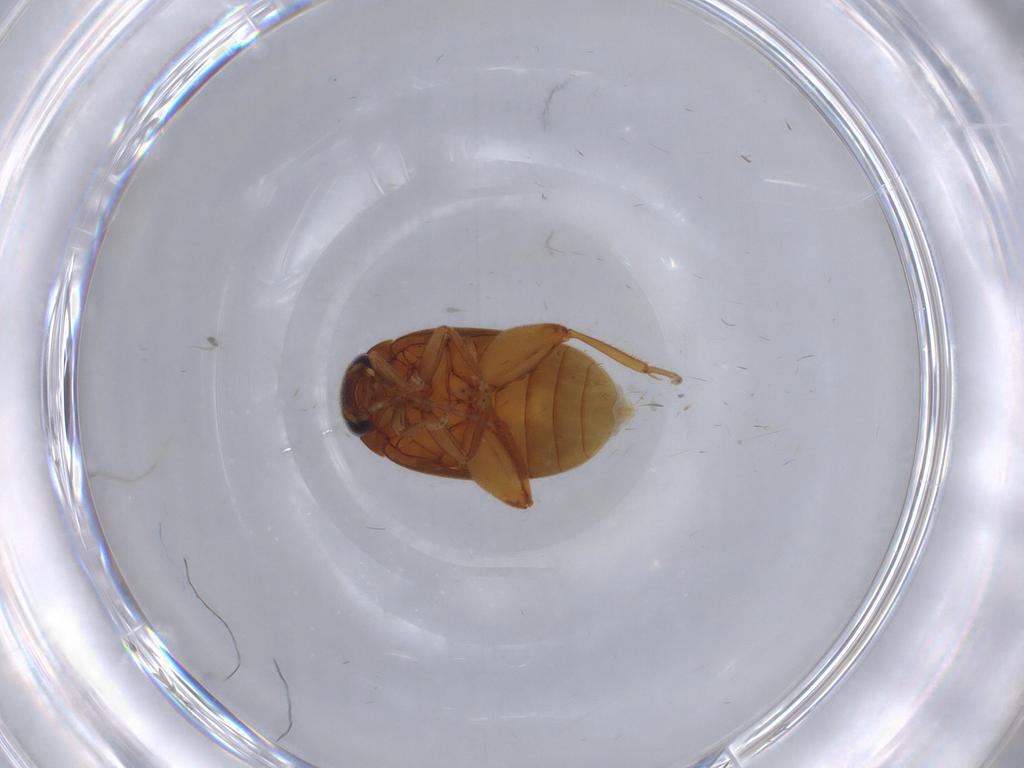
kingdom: Animalia
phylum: Arthropoda
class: Insecta
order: Coleoptera
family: Scirtidae
